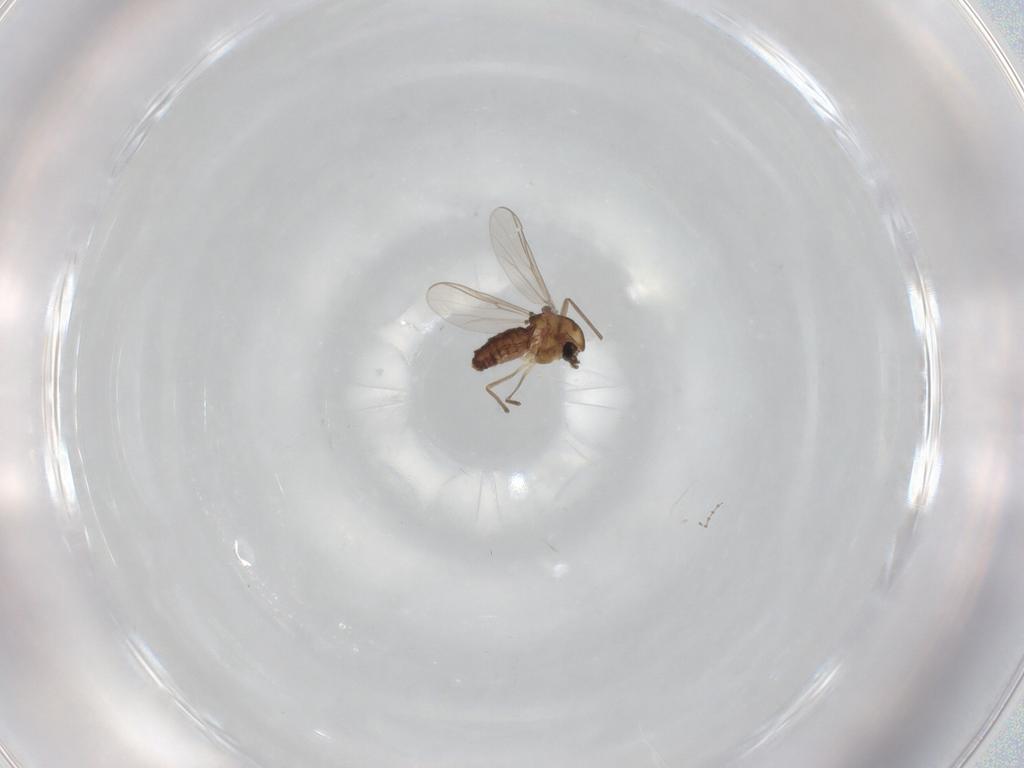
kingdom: Animalia
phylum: Arthropoda
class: Insecta
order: Diptera
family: Chironomidae
